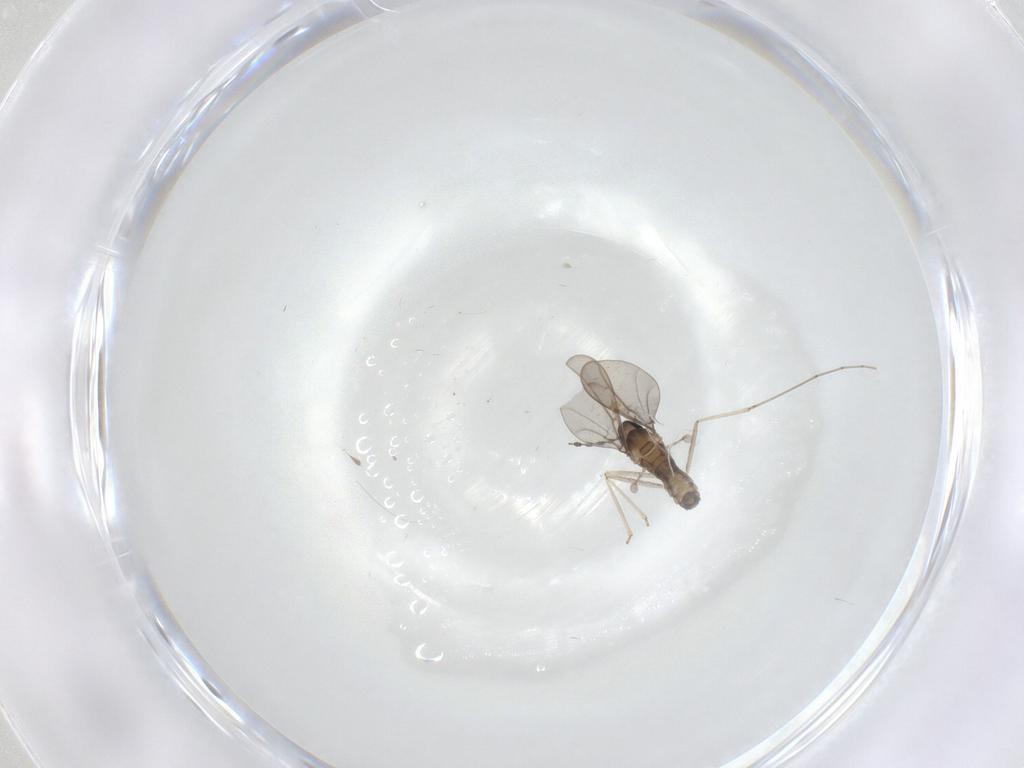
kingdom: Animalia
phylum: Arthropoda
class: Insecta
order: Diptera
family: Cecidomyiidae
